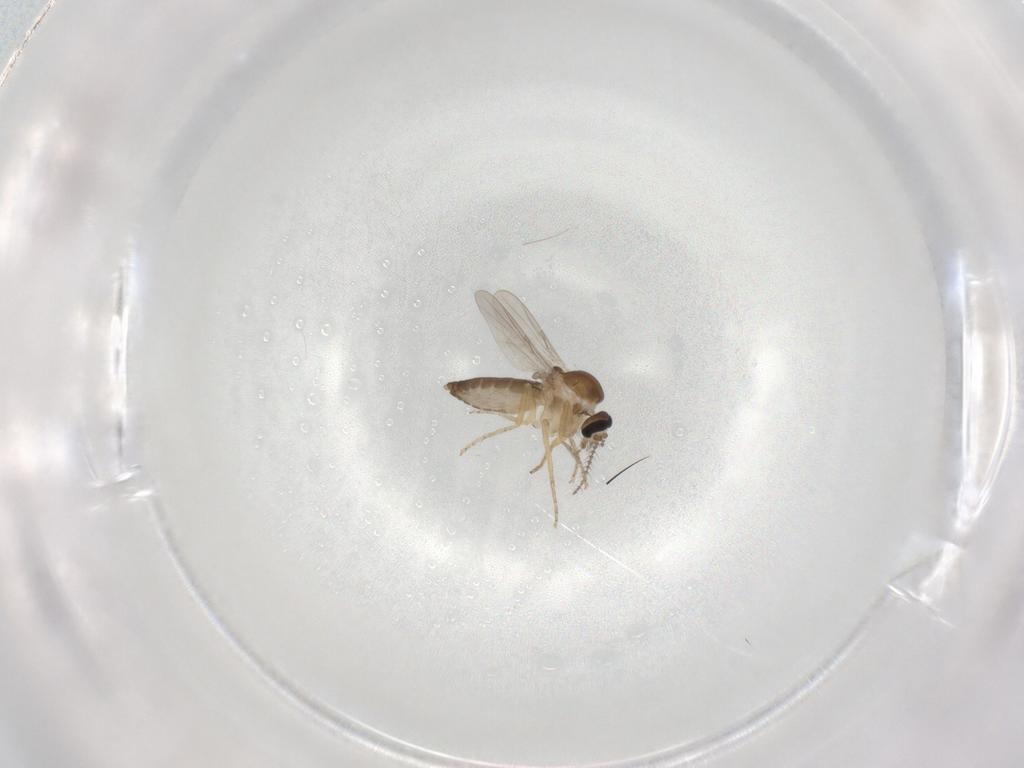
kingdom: Animalia
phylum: Arthropoda
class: Insecta
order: Diptera
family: Ceratopogonidae
